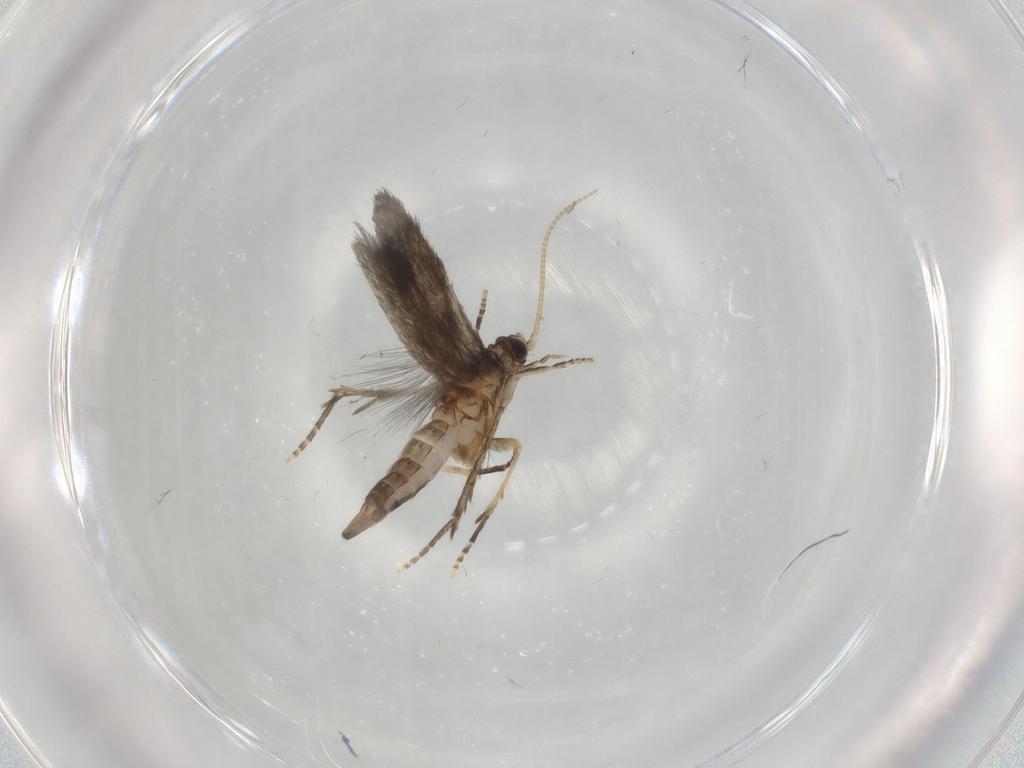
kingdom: Animalia
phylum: Arthropoda
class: Insecta
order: Trichoptera
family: Hydroptilidae
